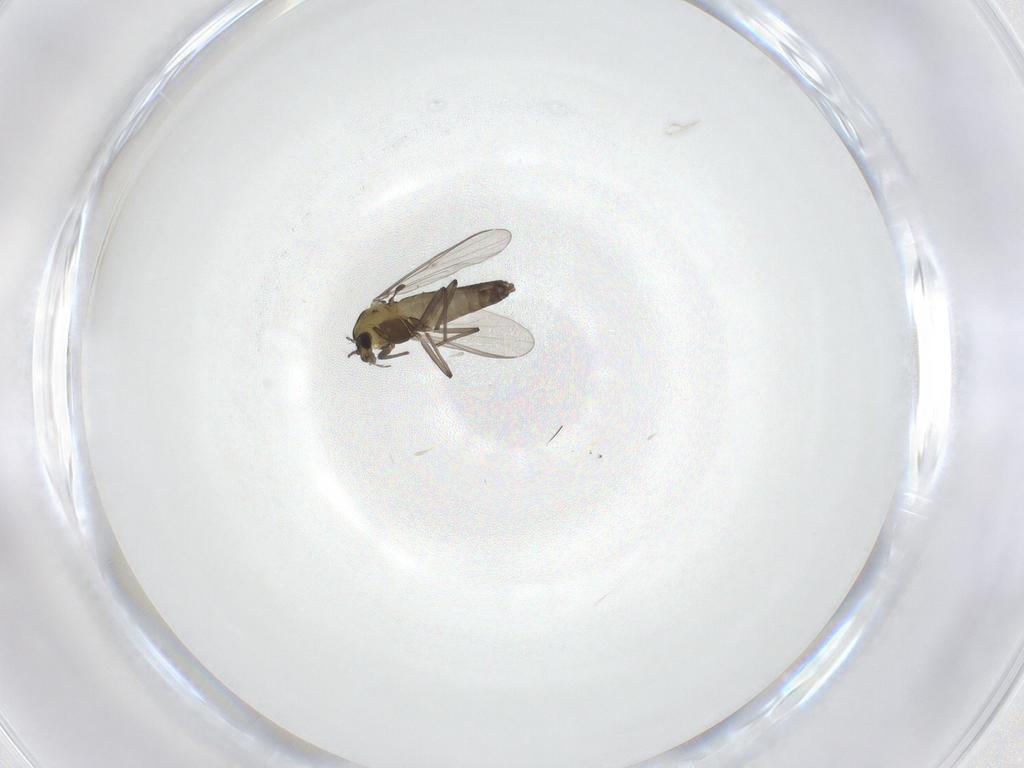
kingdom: Animalia
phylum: Arthropoda
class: Insecta
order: Diptera
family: Chironomidae
